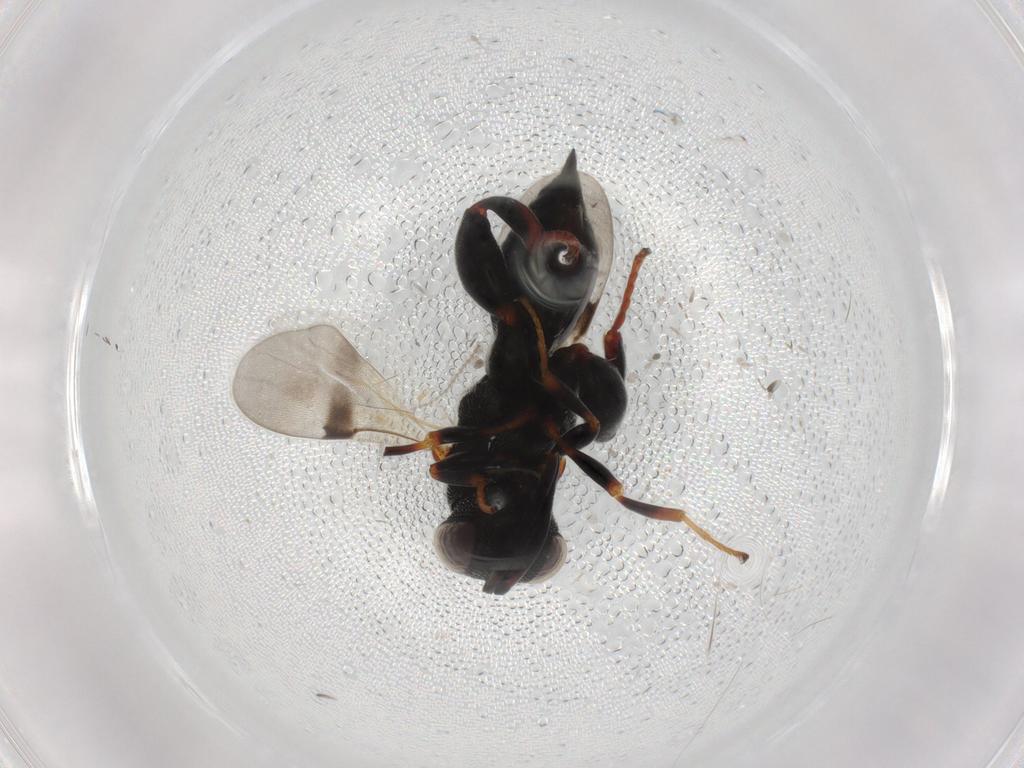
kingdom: Animalia
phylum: Arthropoda
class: Insecta
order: Hymenoptera
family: Chalcididae
